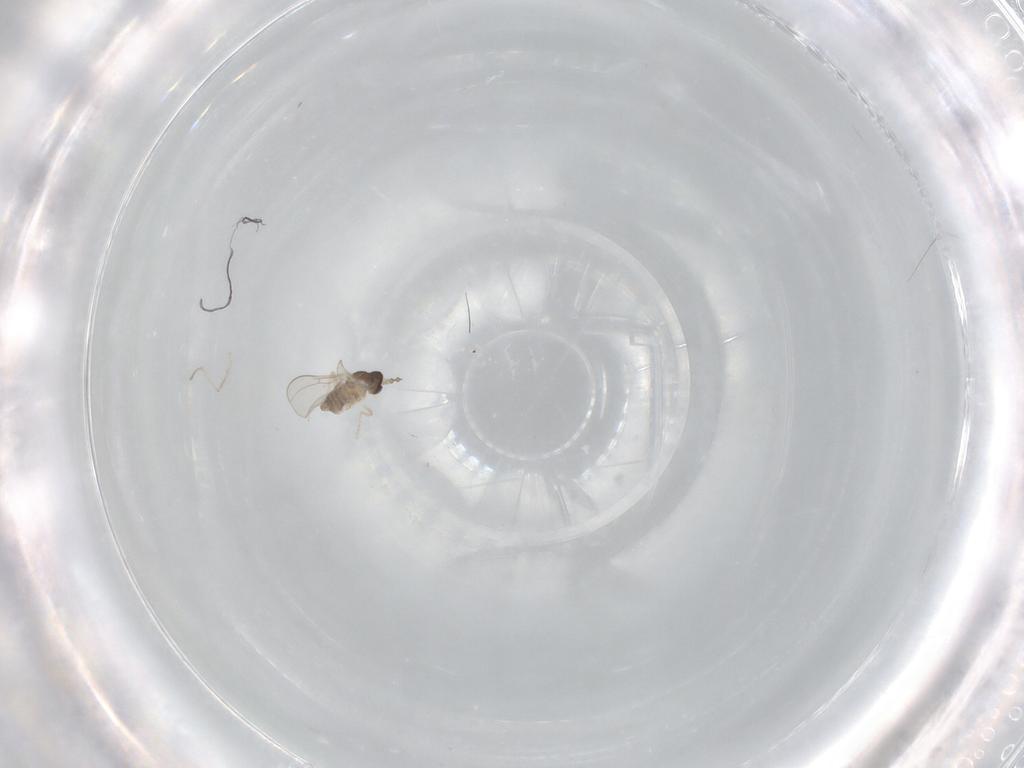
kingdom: Animalia
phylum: Arthropoda
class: Insecta
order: Diptera
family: Cecidomyiidae
